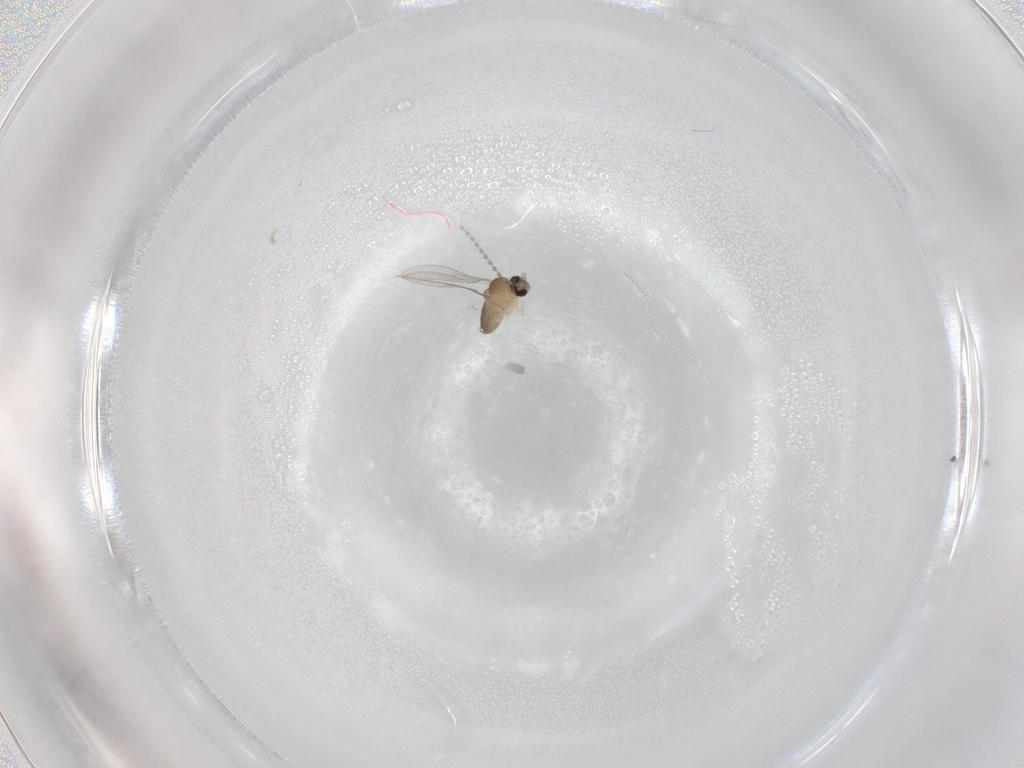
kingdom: Animalia
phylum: Arthropoda
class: Insecta
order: Diptera
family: Cecidomyiidae
